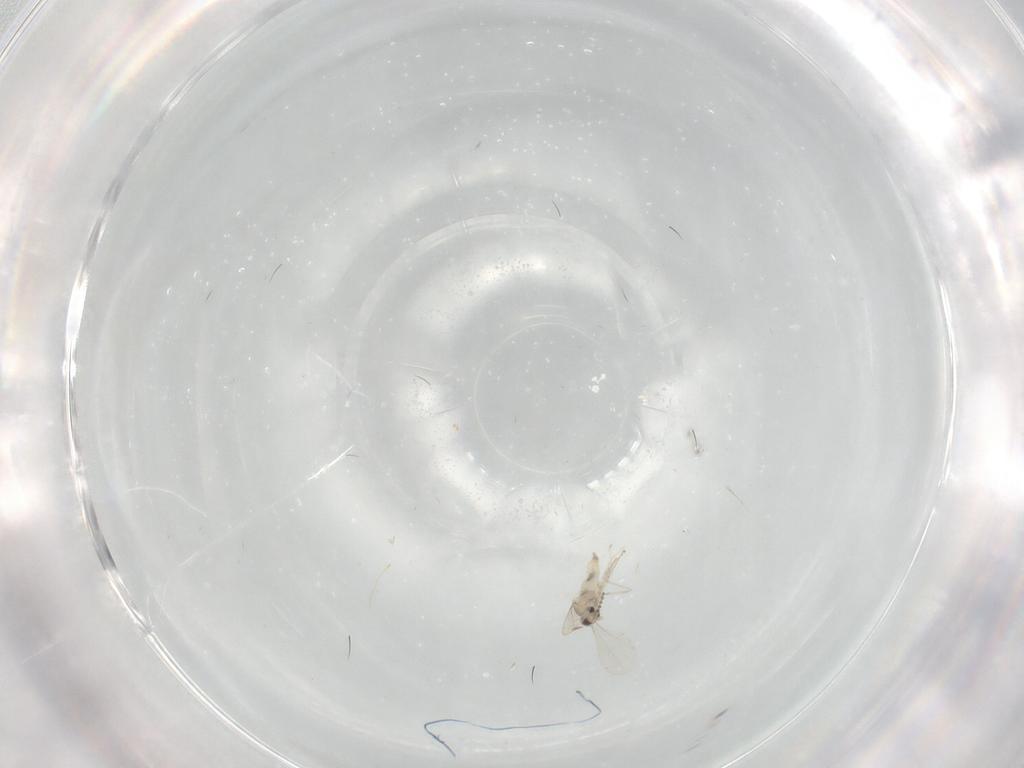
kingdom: Animalia
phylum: Arthropoda
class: Insecta
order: Diptera
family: Cecidomyiidae
